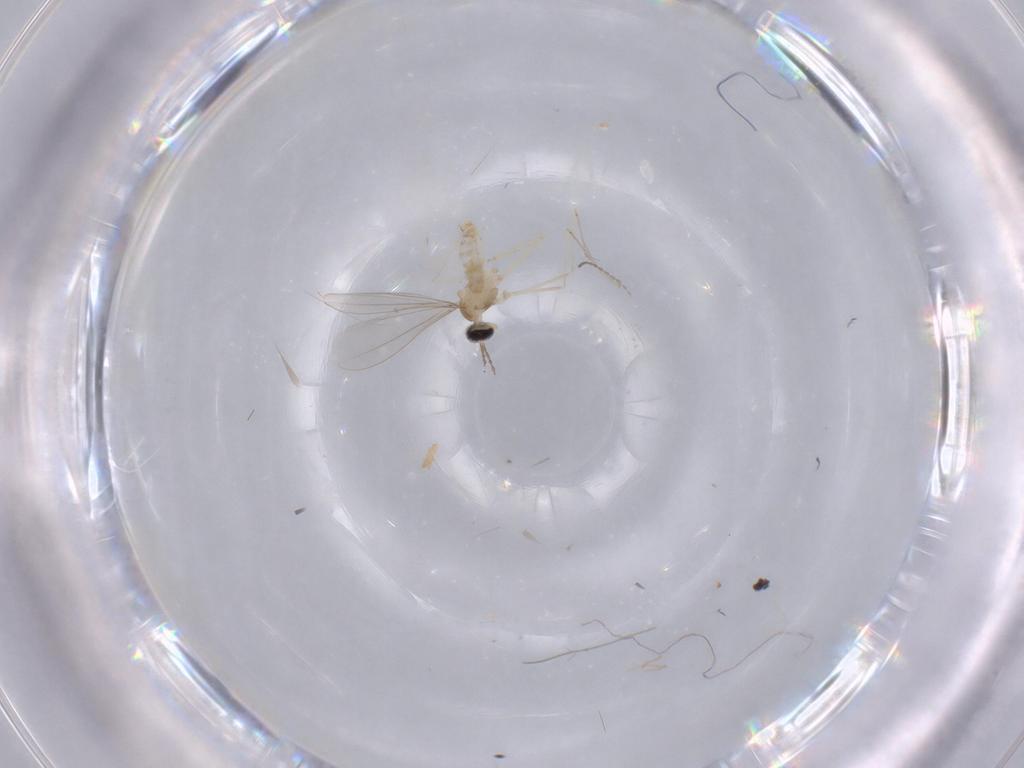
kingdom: Animalia
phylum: Arthropoda
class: Insecta
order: Diptera
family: Cecidomyiidae
